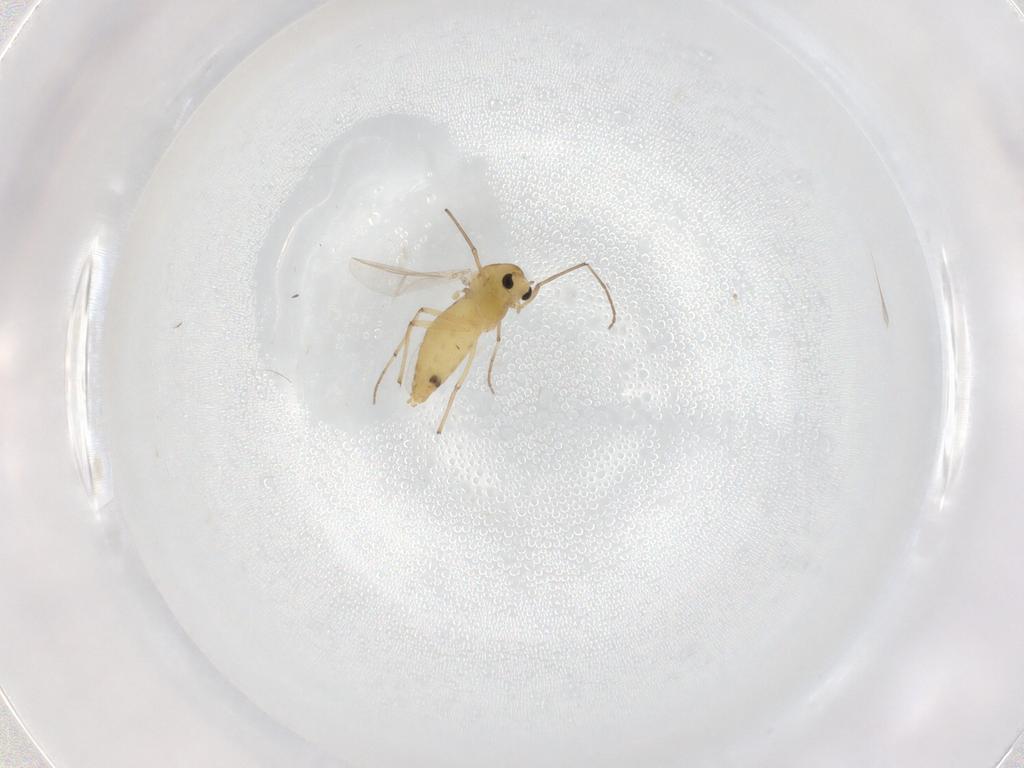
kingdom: Animalia
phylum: Arthropoda
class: Insecta
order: Diptera
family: Chironomidae
